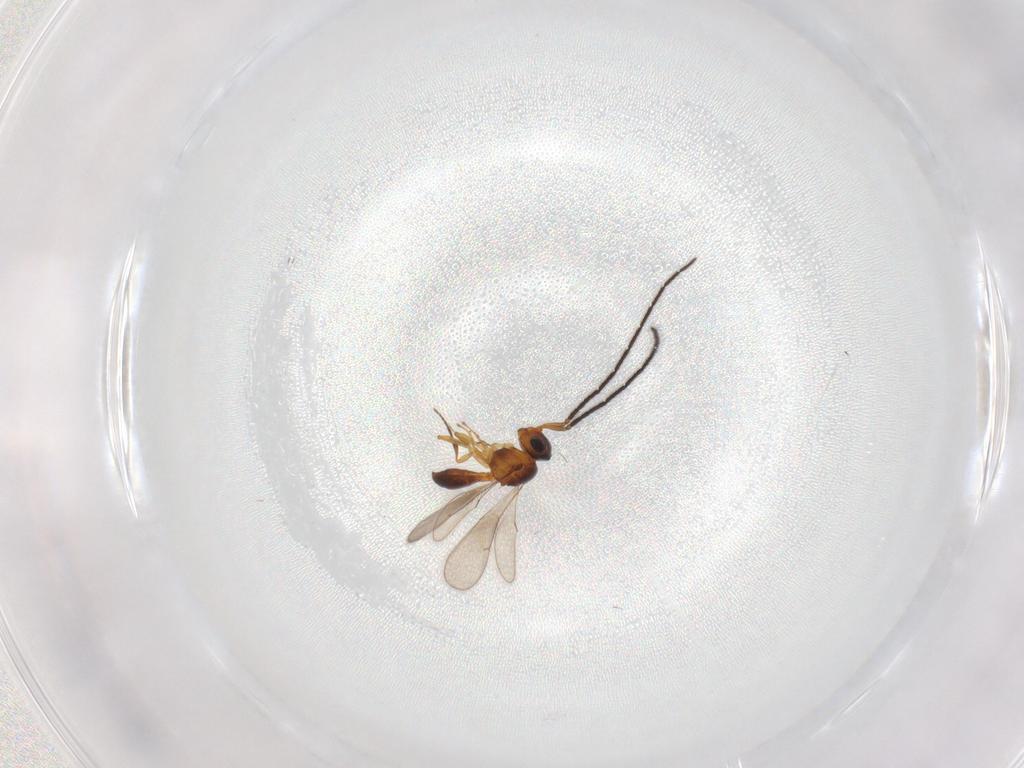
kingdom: Animalia
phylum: Arthropoda
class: Insecta
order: Hymenoptera
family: Scelionidae
